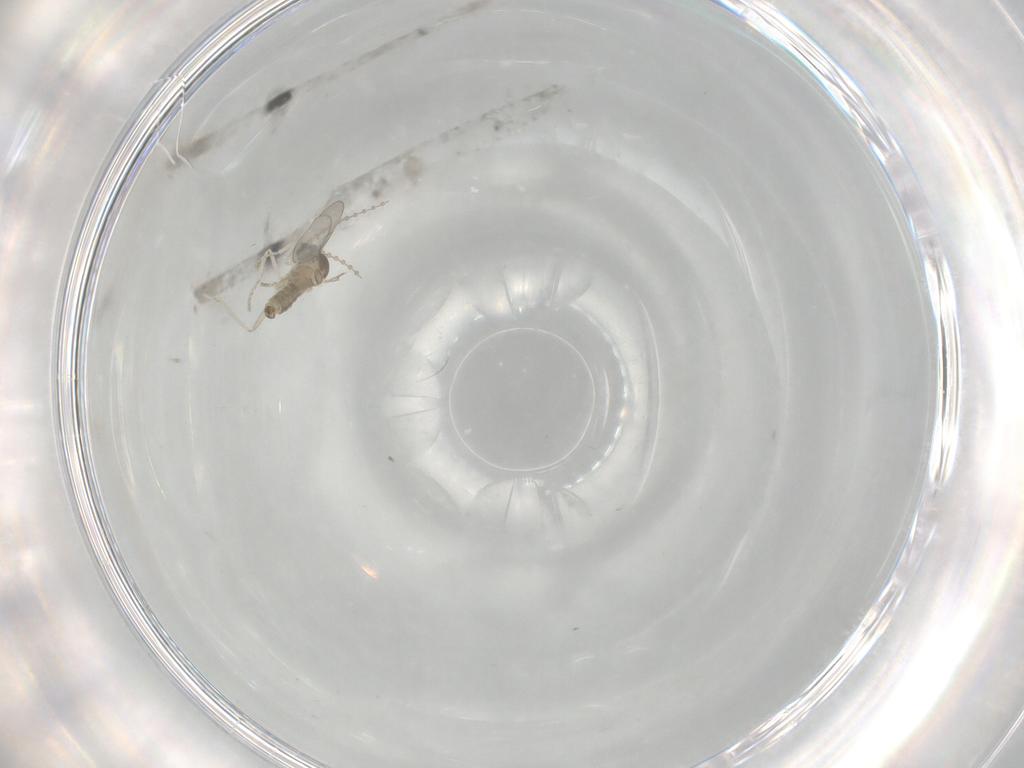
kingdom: Animalia
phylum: Arthropoda
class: Insecta
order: Diptera
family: Cecidomyiidae
